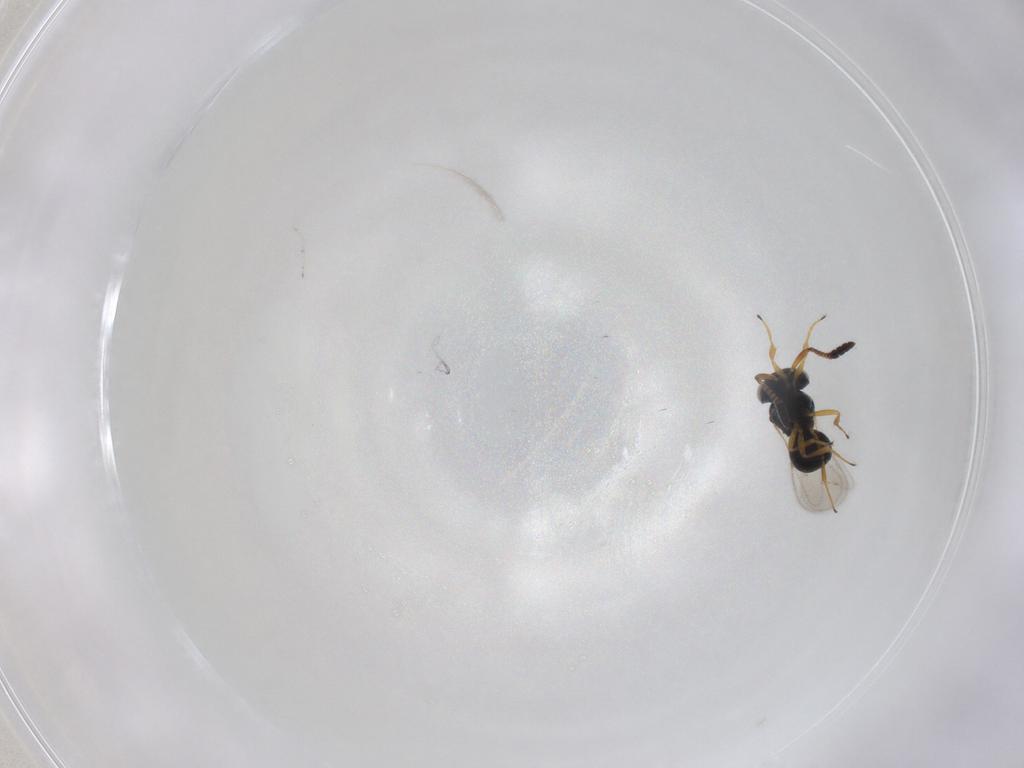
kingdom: Animalia
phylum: Arthropoda
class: Insecta
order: Hymenoptera
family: Scelionidae
